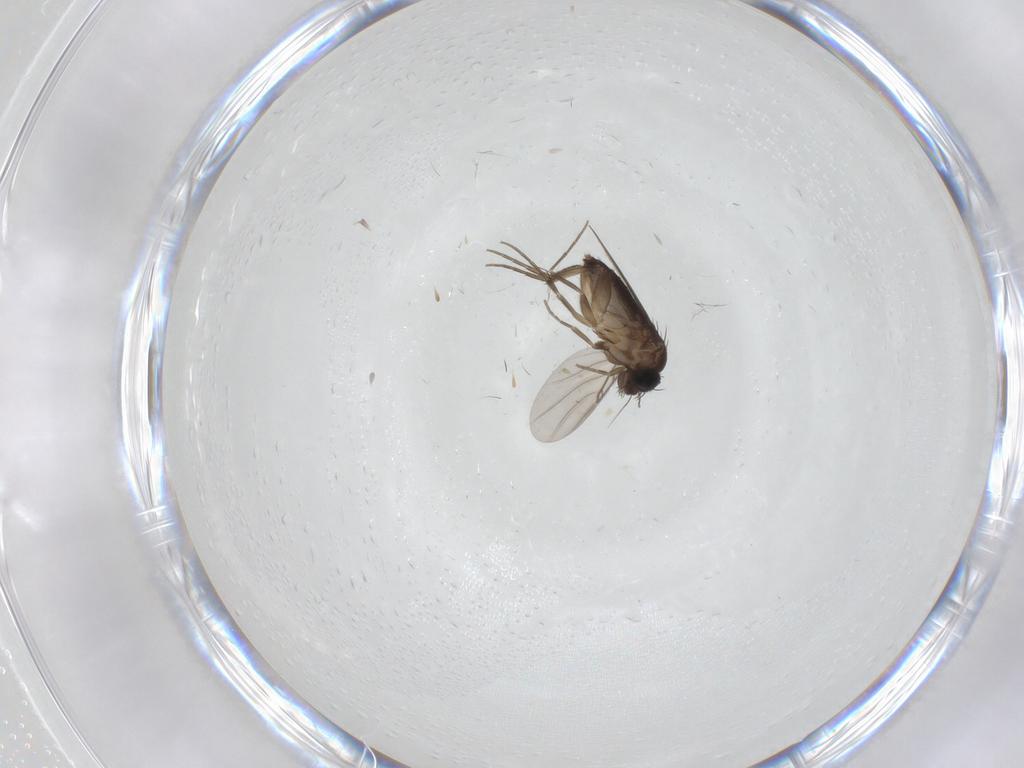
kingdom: Animalia
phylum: Arthropoda
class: Insecta
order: Diptera
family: Phoridae
